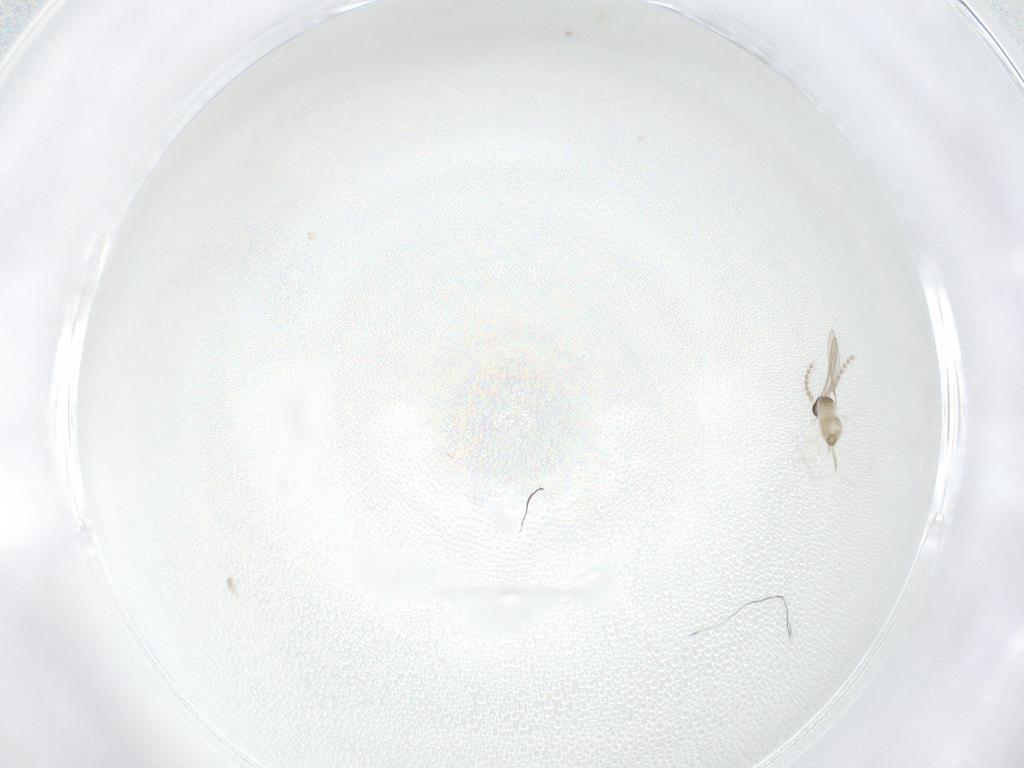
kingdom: Animalia
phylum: Arthropoda
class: Insecta
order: Diptera
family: Cecidomyiidae
